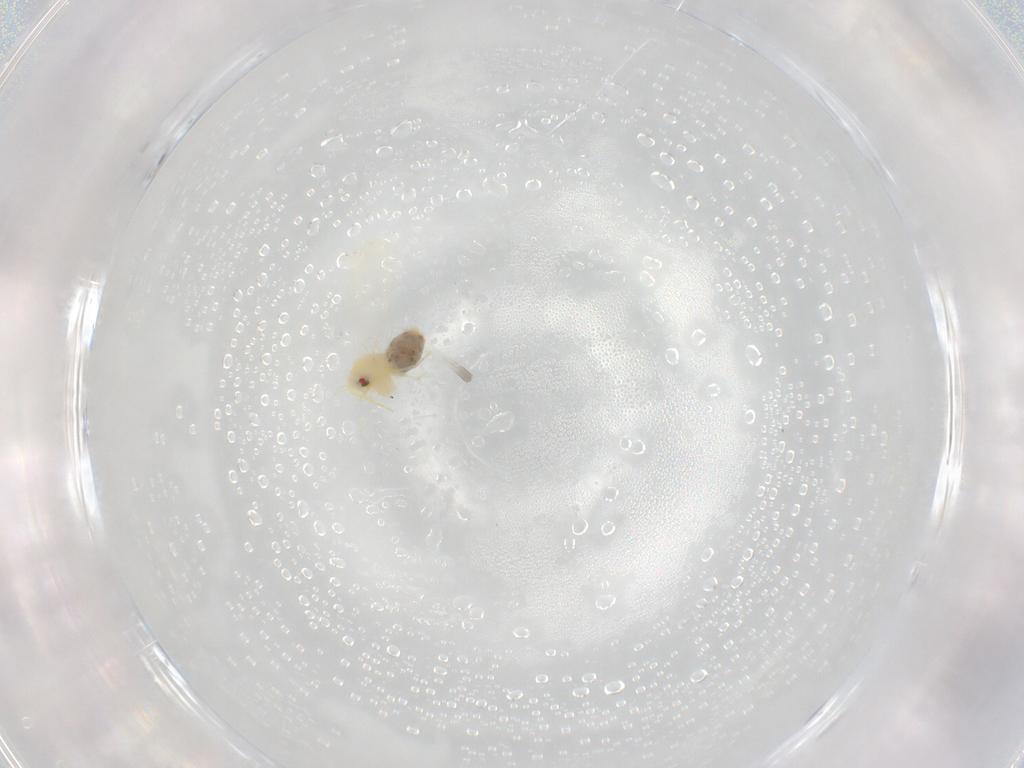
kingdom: Animalia
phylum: Arthropoda
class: Insecta
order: Hemiptera
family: Aleyrodidae
